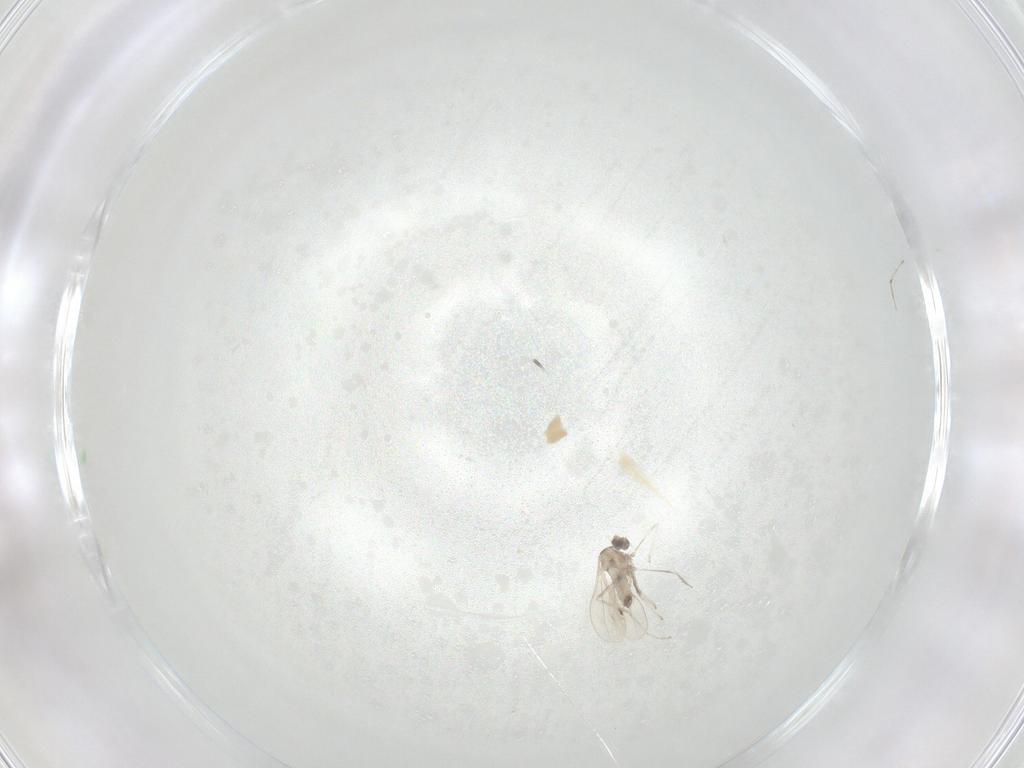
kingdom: Animalia
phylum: Arthropoda
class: Insecta
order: Diptera
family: Cecidomyiidae
